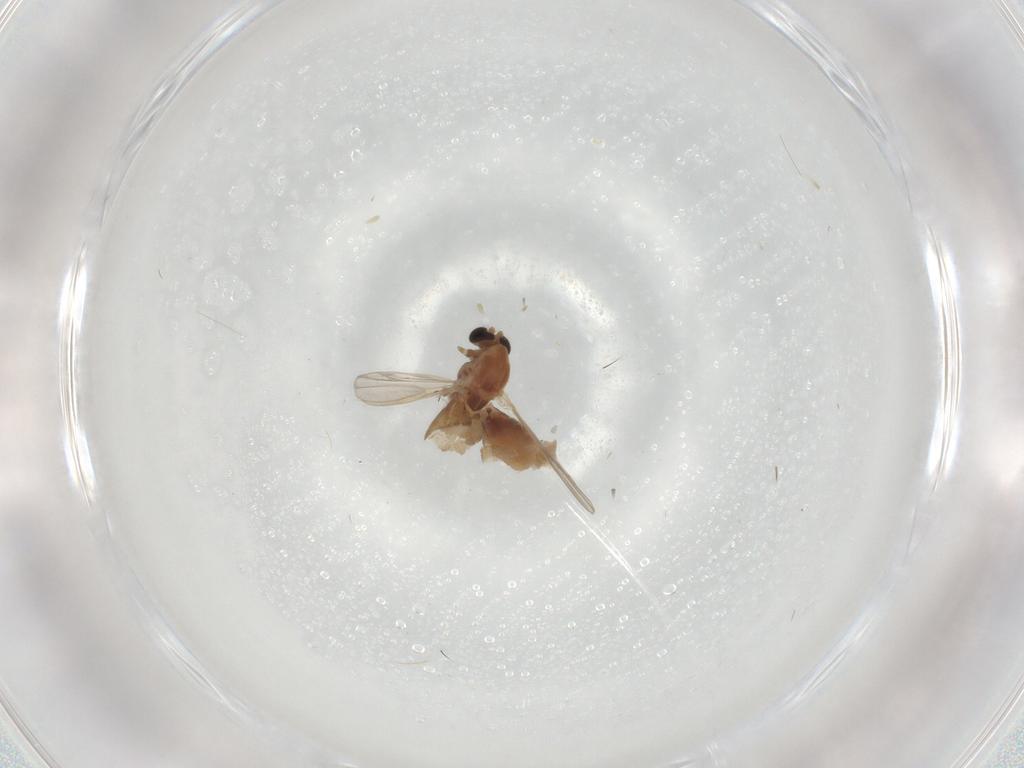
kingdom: Animalia
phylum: Arthropoda
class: Insecta
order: Diptera
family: Chironomidae
